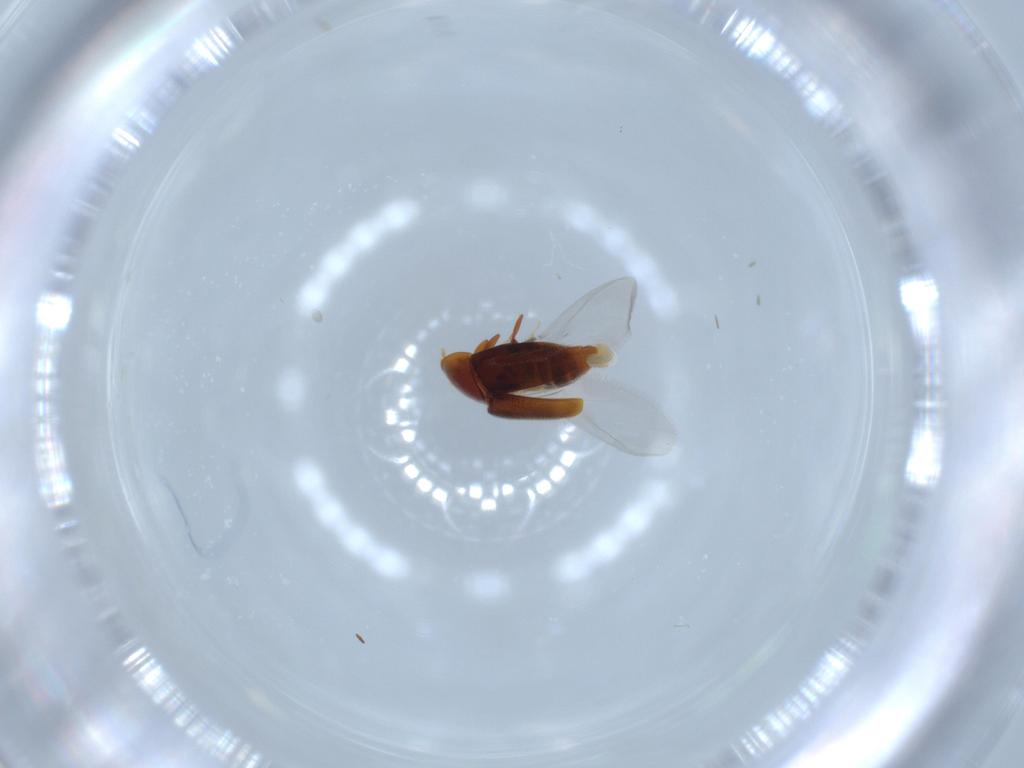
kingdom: Animalia
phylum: Arthropoda
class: Insecta
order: Coleoptera
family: Corylophidae
